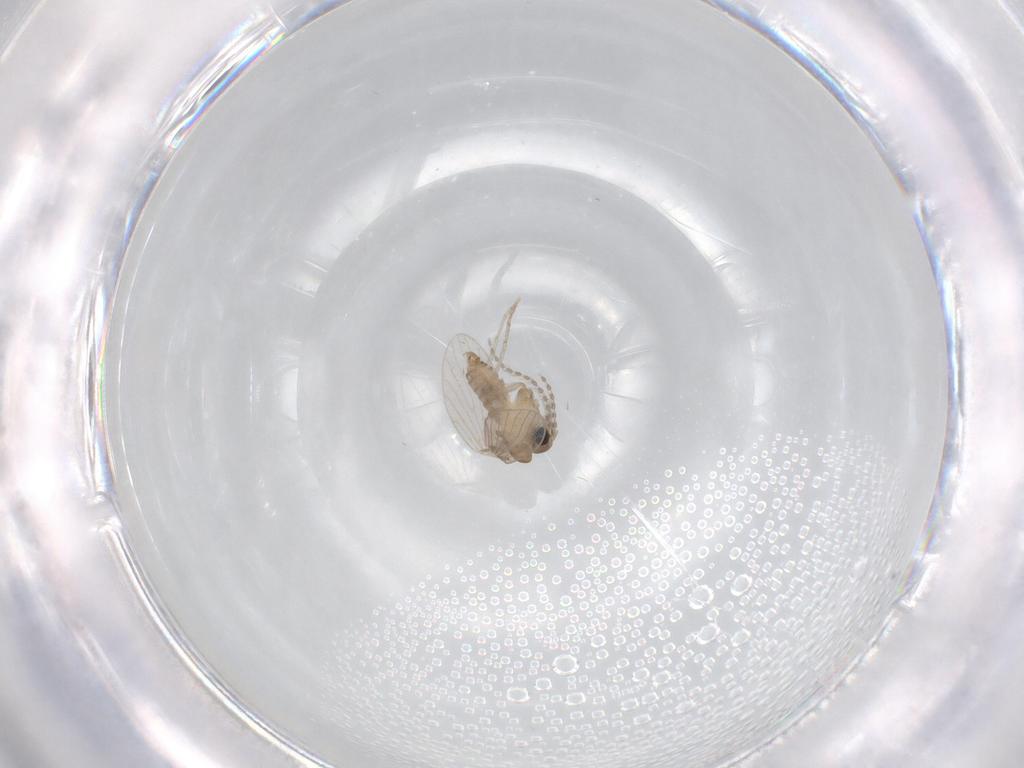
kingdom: Animalia
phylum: Arthropoda
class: Insecta
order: Diptera
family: Psychodidae
